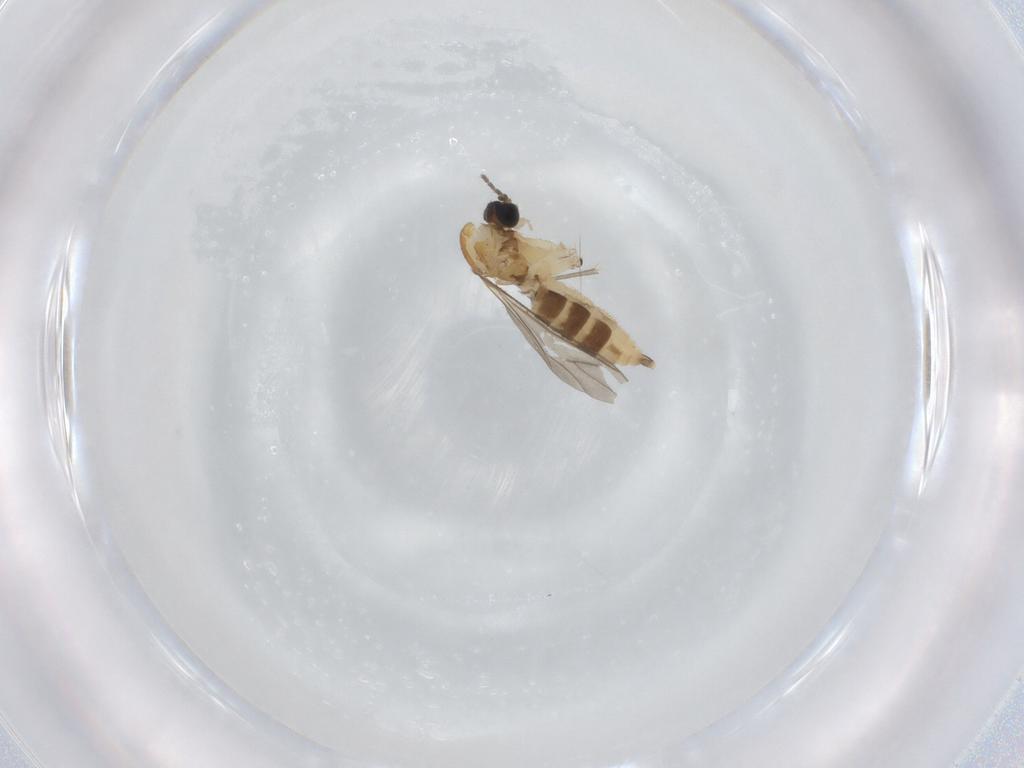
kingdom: Animalia
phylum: Arthropoda
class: Insecta
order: Diptera
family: Sciaridae
